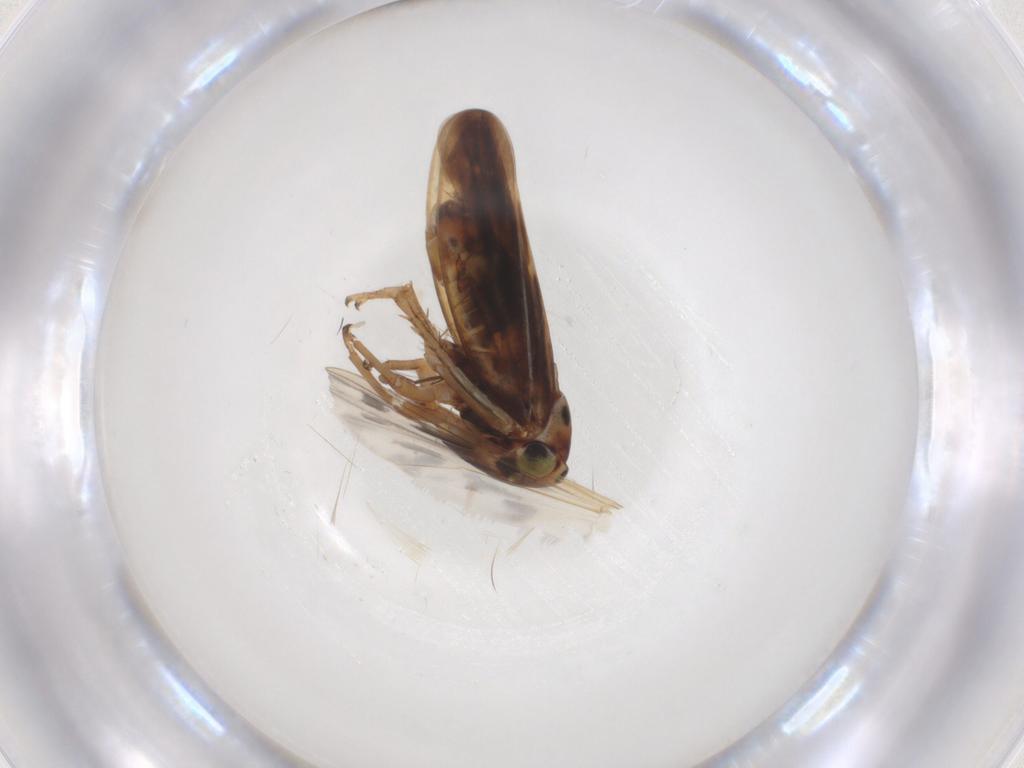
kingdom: Animalia
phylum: Arthropoda
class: Insecta
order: Hemiptera
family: Cicadellidae
